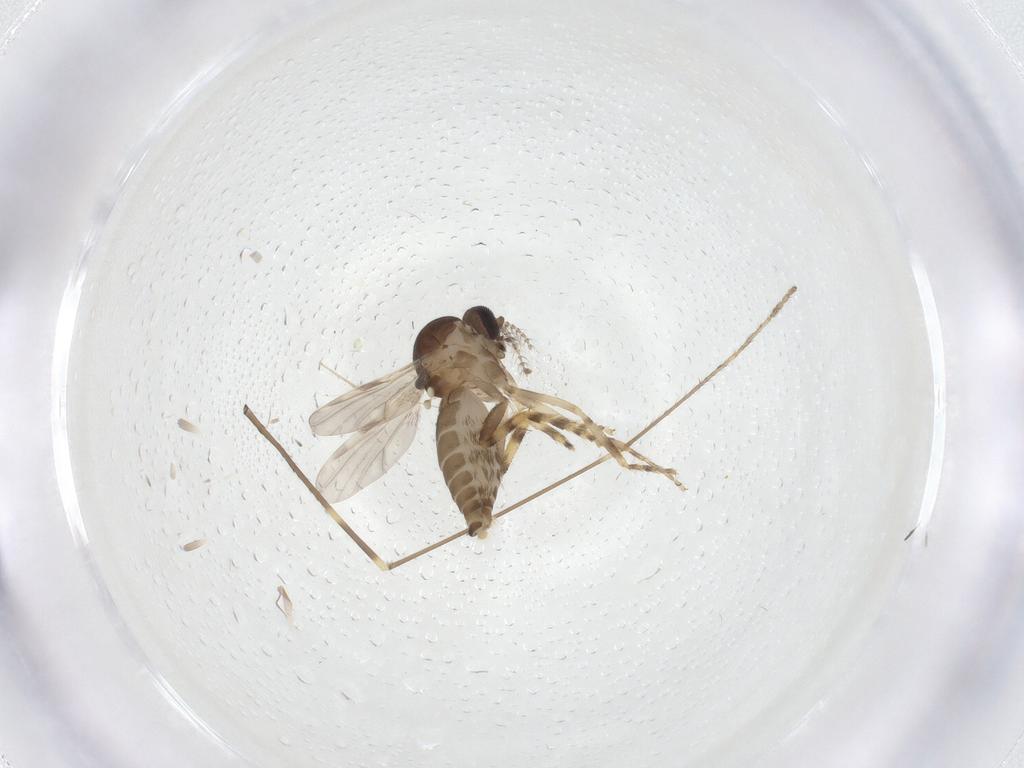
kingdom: Animalia
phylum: Arthropoda
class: Insecta
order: Diptera
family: Ceratopogonidae
